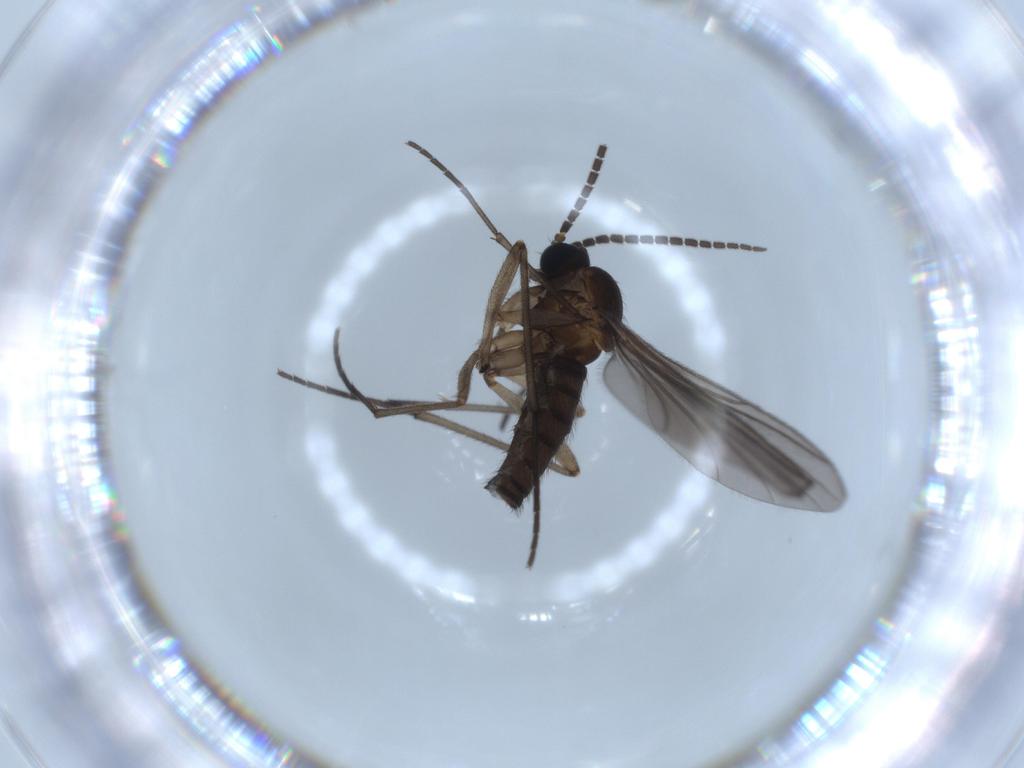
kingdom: Animalia
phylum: Arthropoda
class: Insecta
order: Diptera
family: Sciaridae
